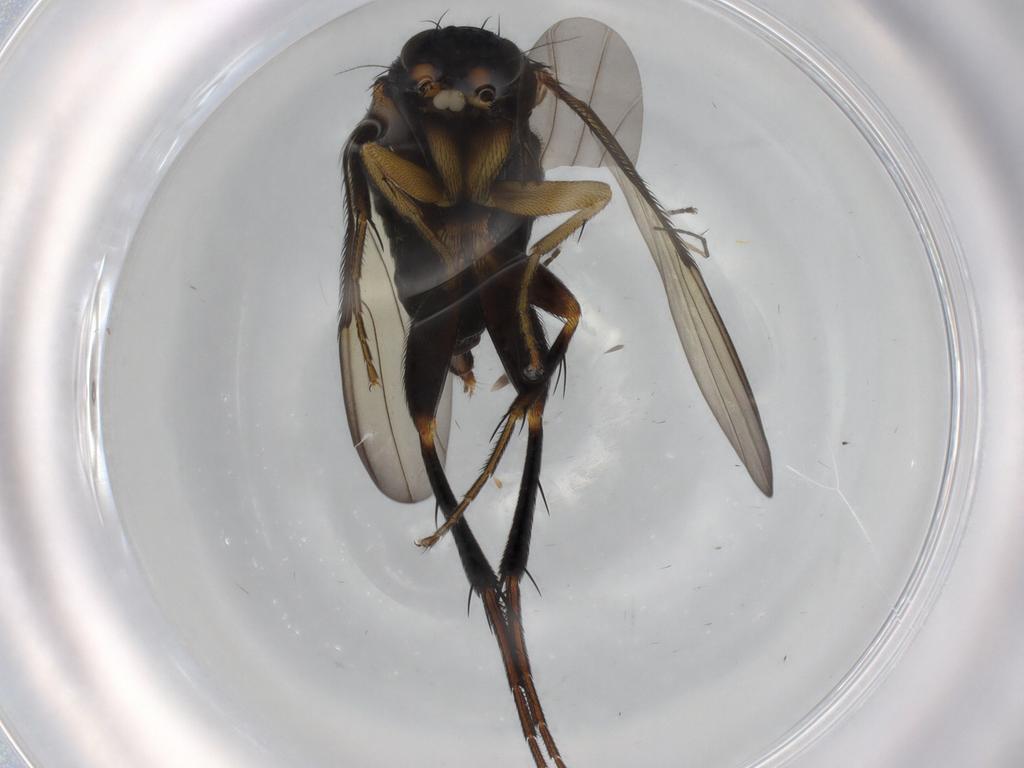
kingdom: Animalia
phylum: Arthropoda
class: Insecta
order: Diptera
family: Phoridae
